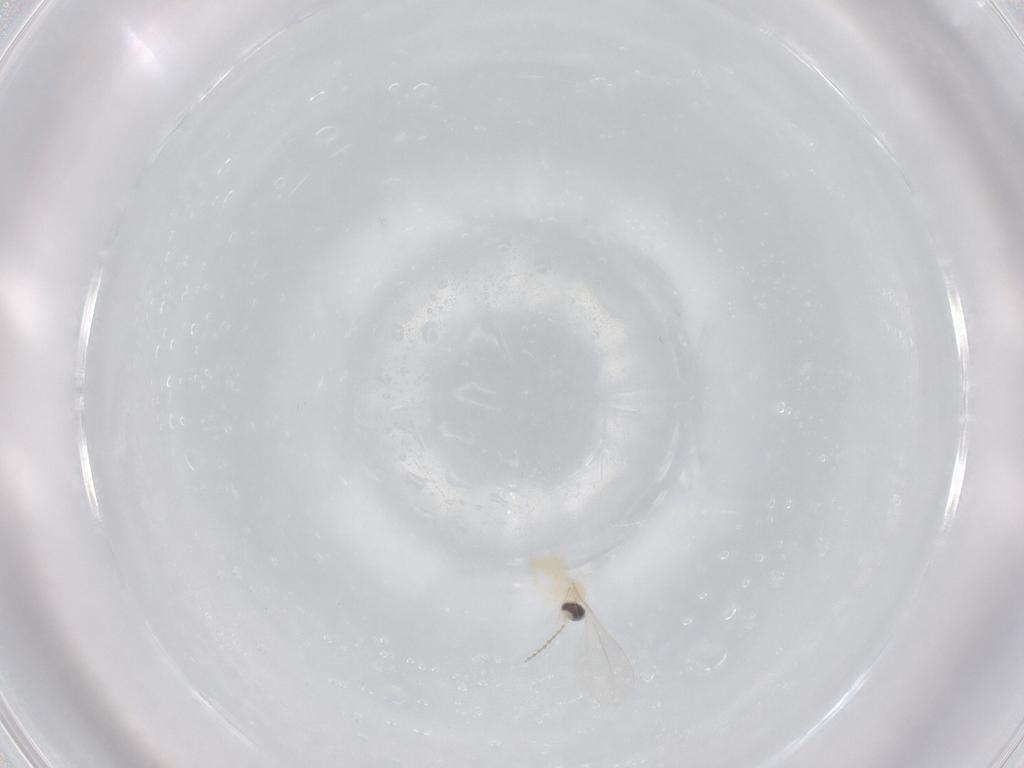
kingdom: Animalia
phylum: Arthropoda
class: Insecta
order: Diptera
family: Cecidomyiidae
